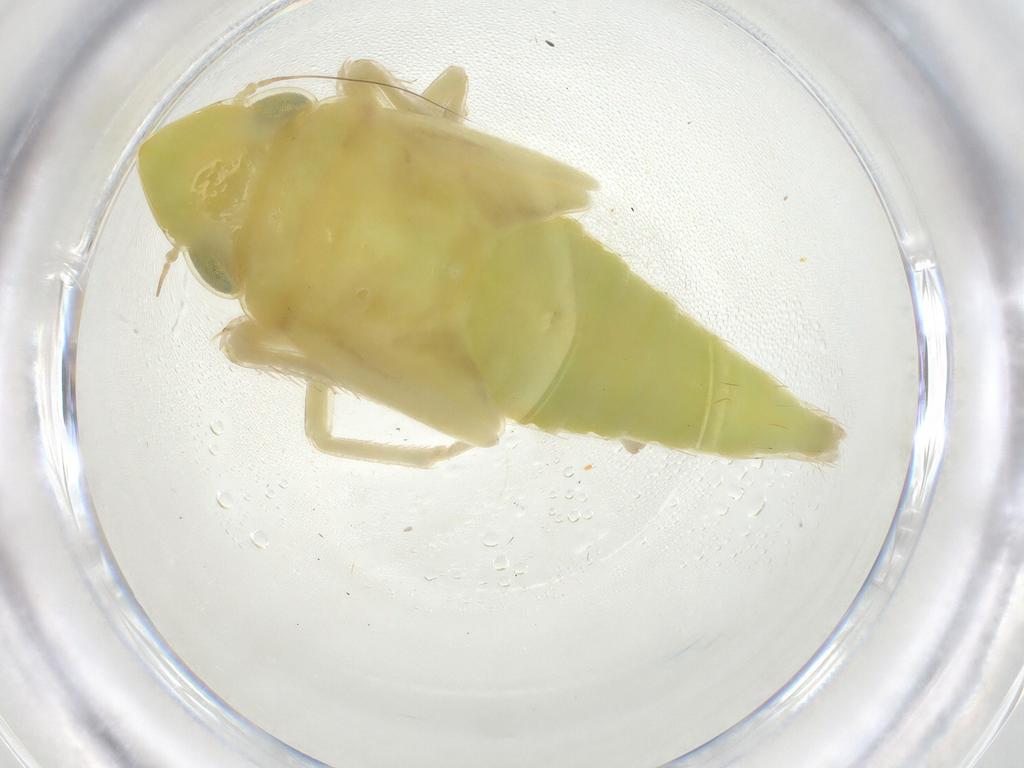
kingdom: Animalia
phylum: Arthropoda
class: Insecta
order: Hemiptera
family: Cicadellidae
